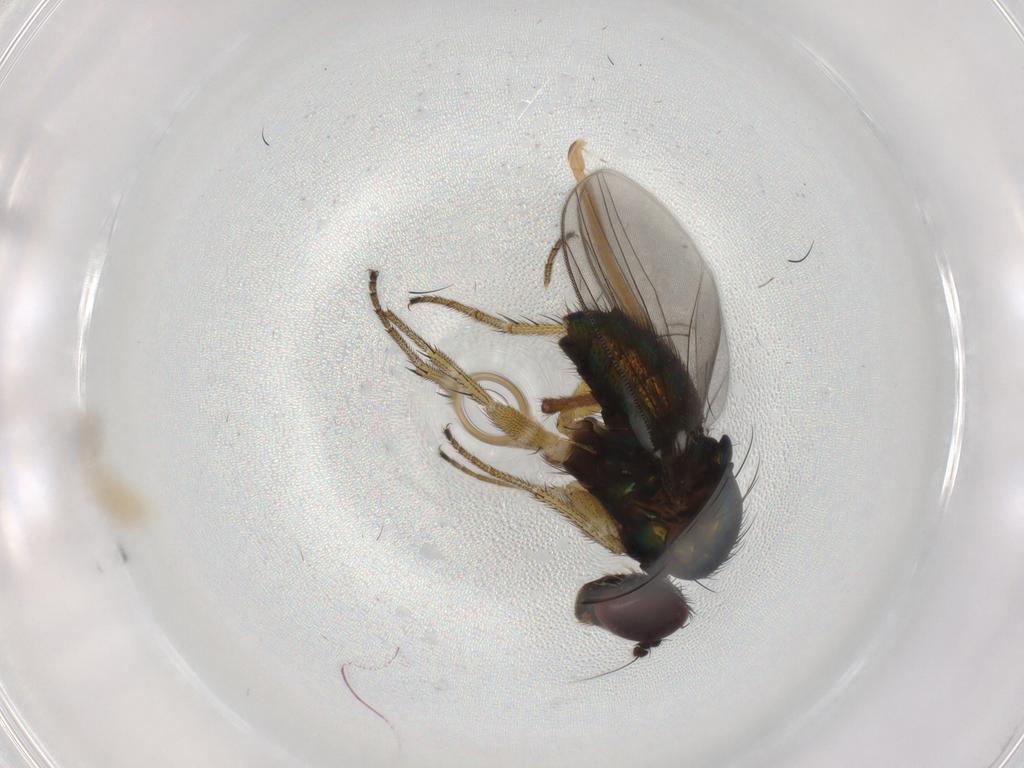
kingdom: Animalia
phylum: Arthropoda
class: Insecta
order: Diptera
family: Dolichopodidae
